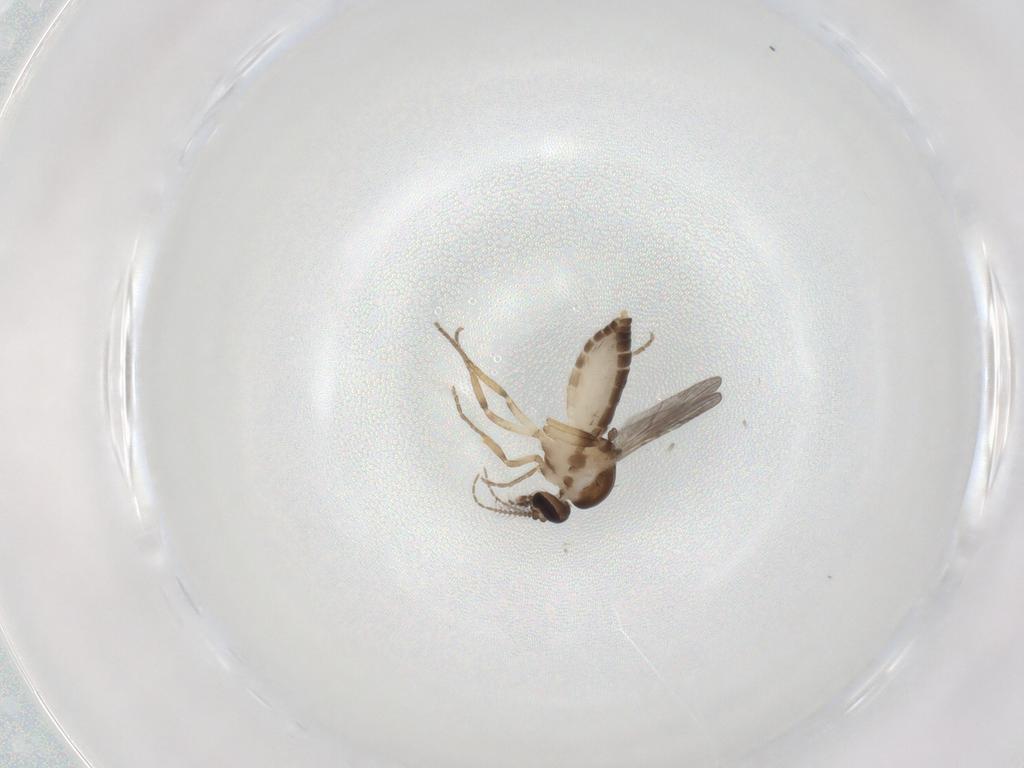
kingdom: Animalia
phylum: Arthropoda
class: Insecta
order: Diptera
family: Ceratopogonidae
